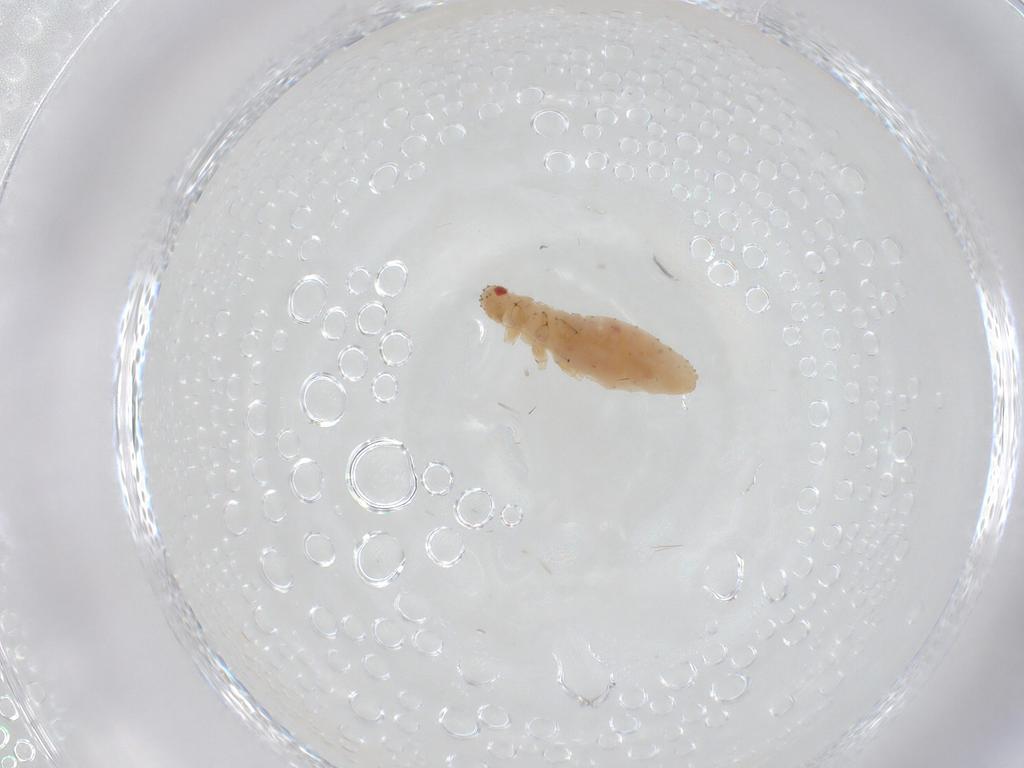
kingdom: Animalia
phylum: Arthropoda
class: Insecta
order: Hemiptera
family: Aphididae
